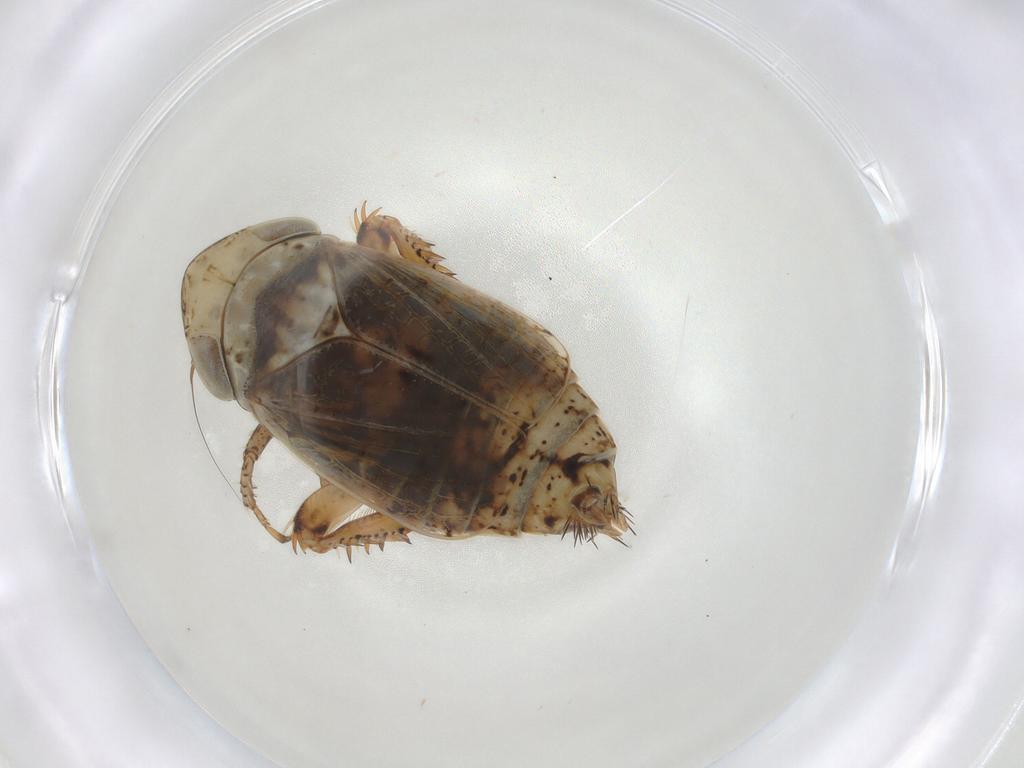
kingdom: Animalia
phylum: Arthropoda
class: Insecta
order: Hemiptera
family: Cicadellidae
